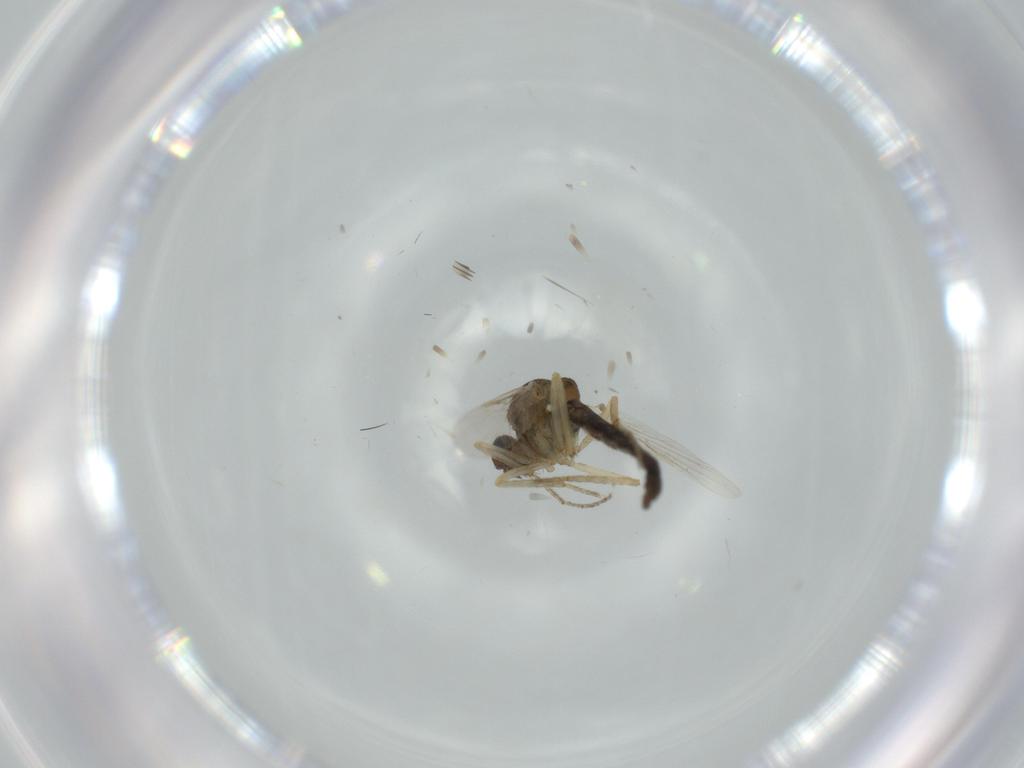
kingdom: Animalia
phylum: Arthropoda
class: Insecta
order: Diptera
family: Ceratopogonidae
